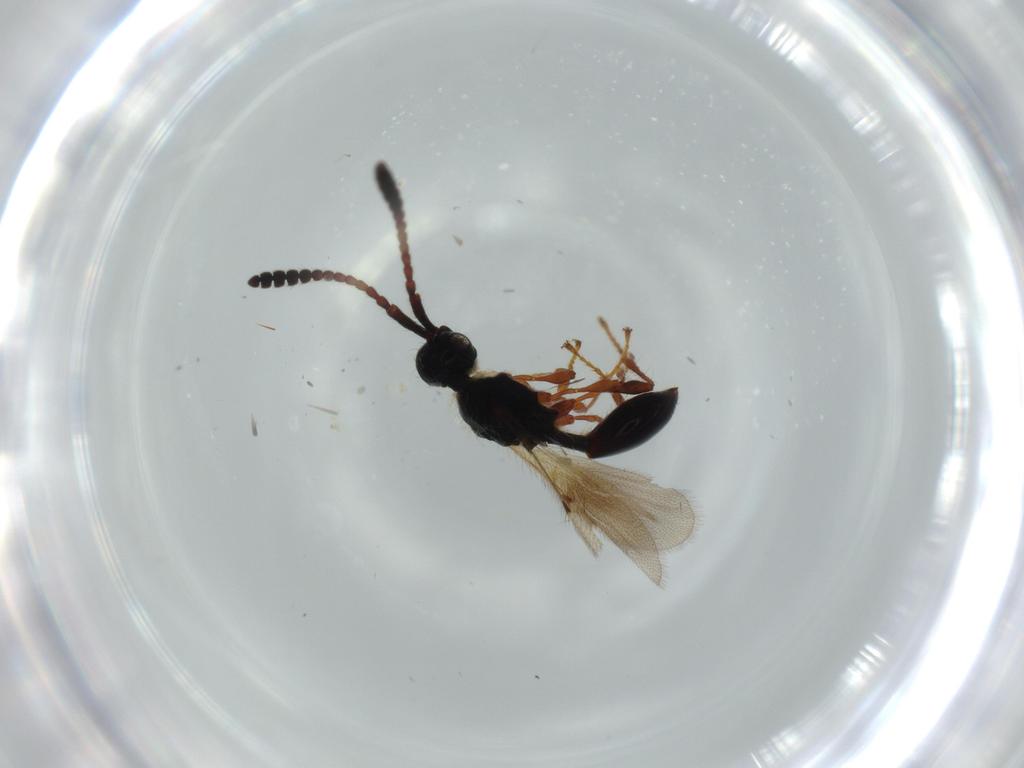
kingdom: Animalia
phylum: Arthropoda
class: Insecta
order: Hymenoptera
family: Diapriidae
